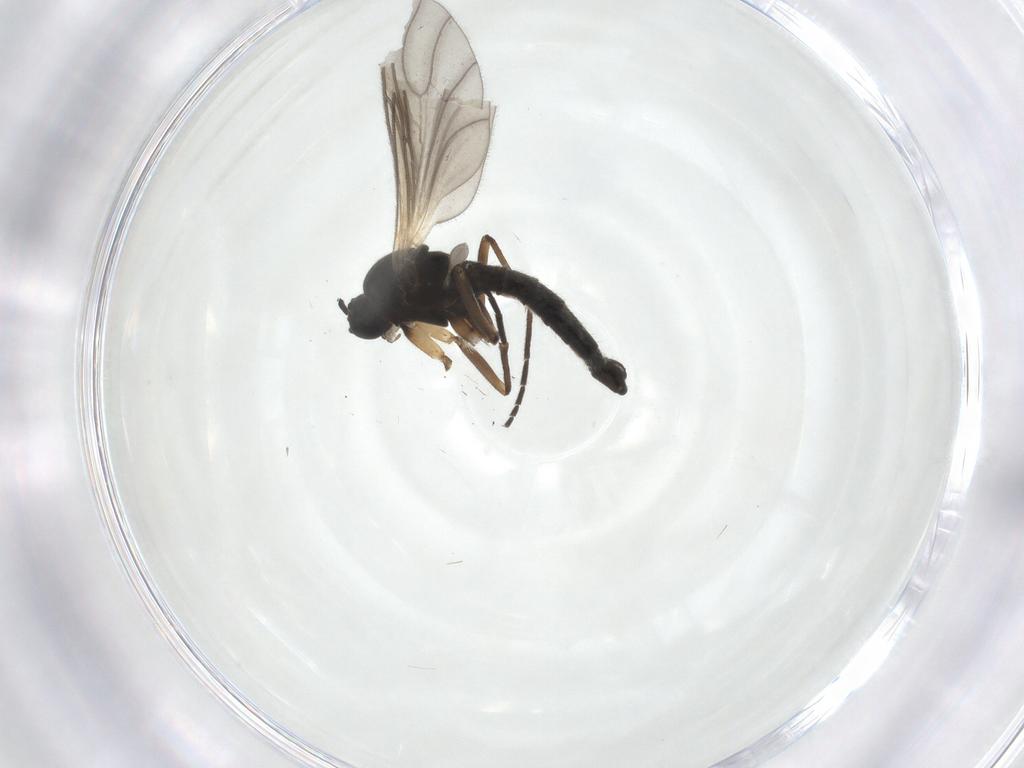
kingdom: Animalia
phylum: Arthropoda
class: Insecta
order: Diptera
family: Sciaridae
